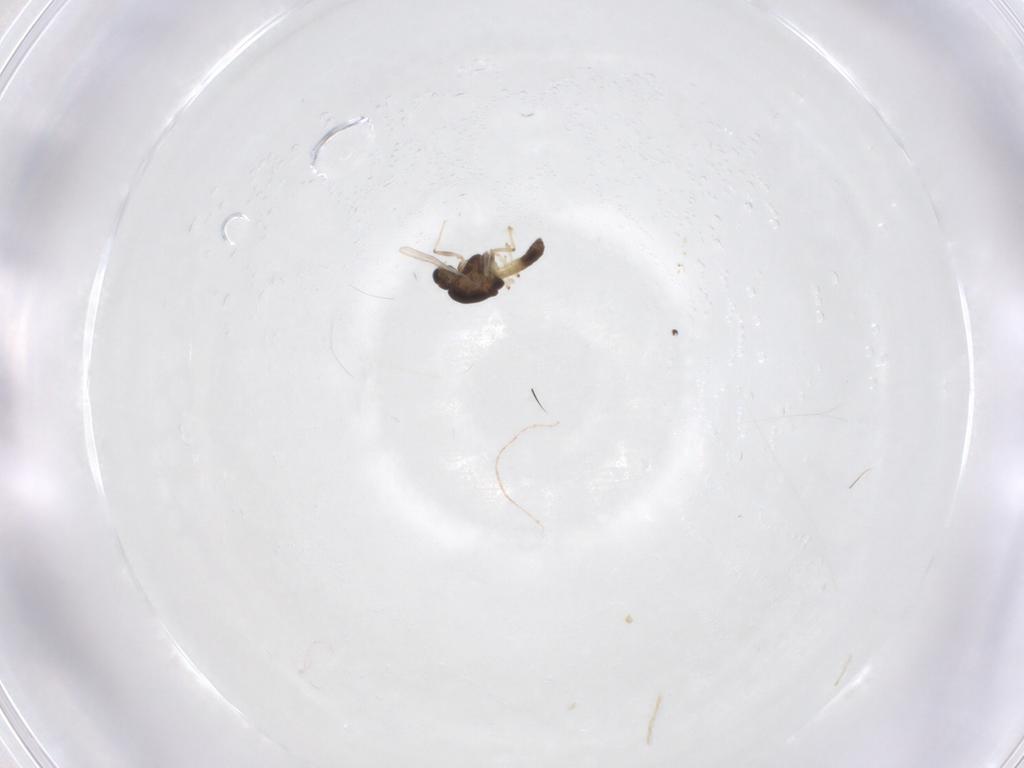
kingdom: Animalia
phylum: Arthropoda
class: Insecta
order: Diptera
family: Chironomidae
